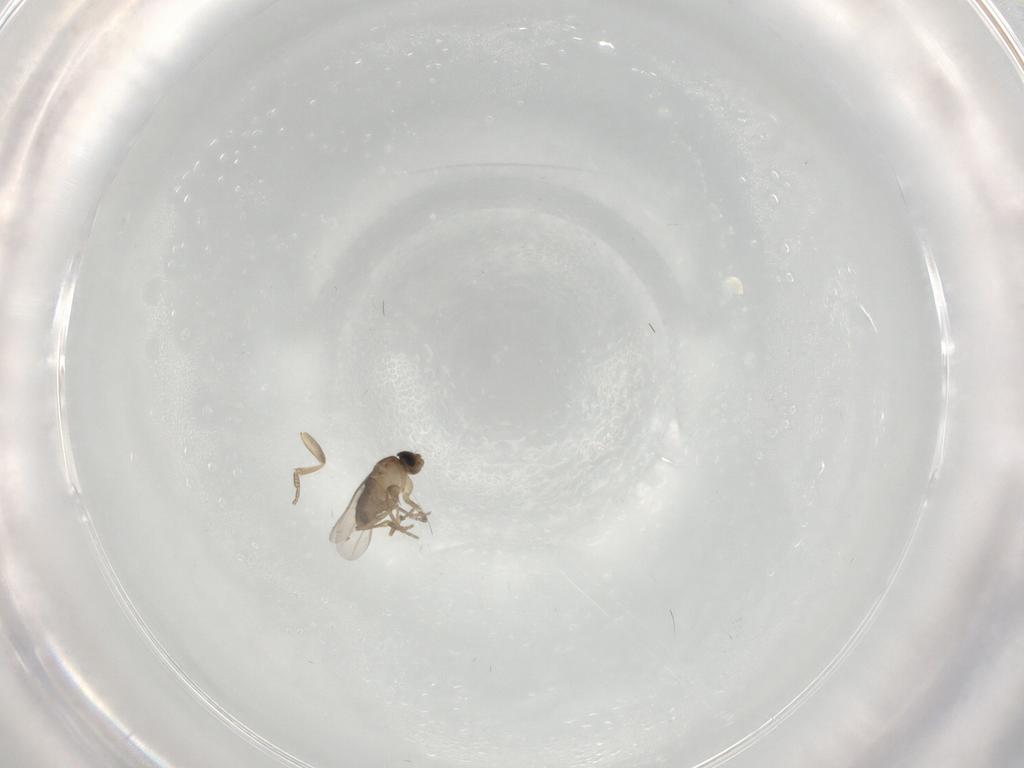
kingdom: Animalia
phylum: Arthropoda
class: Insecta
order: Diptera
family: Phoridae
